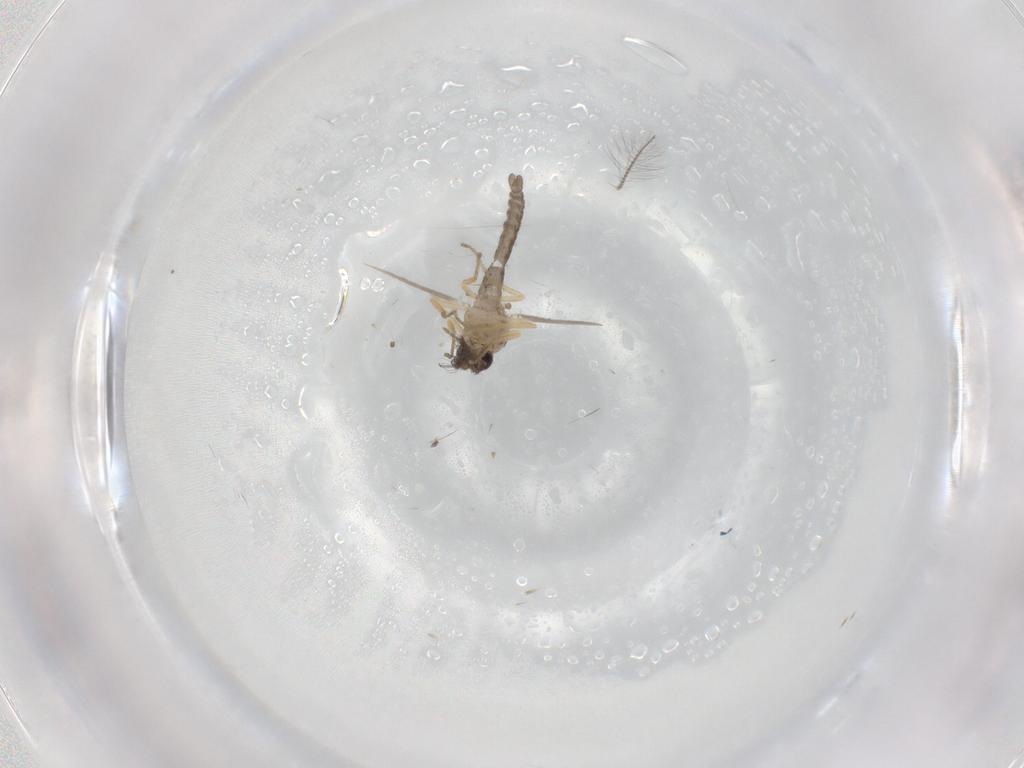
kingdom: Animalia
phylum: Arthropoda
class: Insecta
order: Diptera
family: Ceratopogonidae
